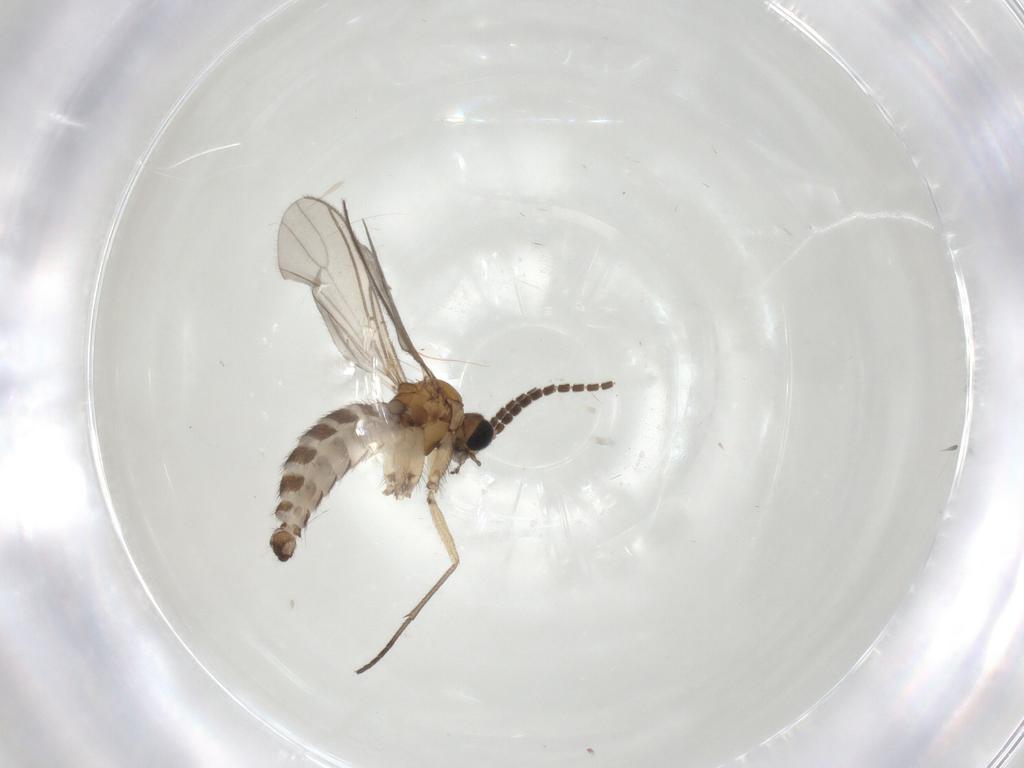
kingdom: Animalia
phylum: Arthropoda
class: Insecta
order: Diptera
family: Sciaridae
